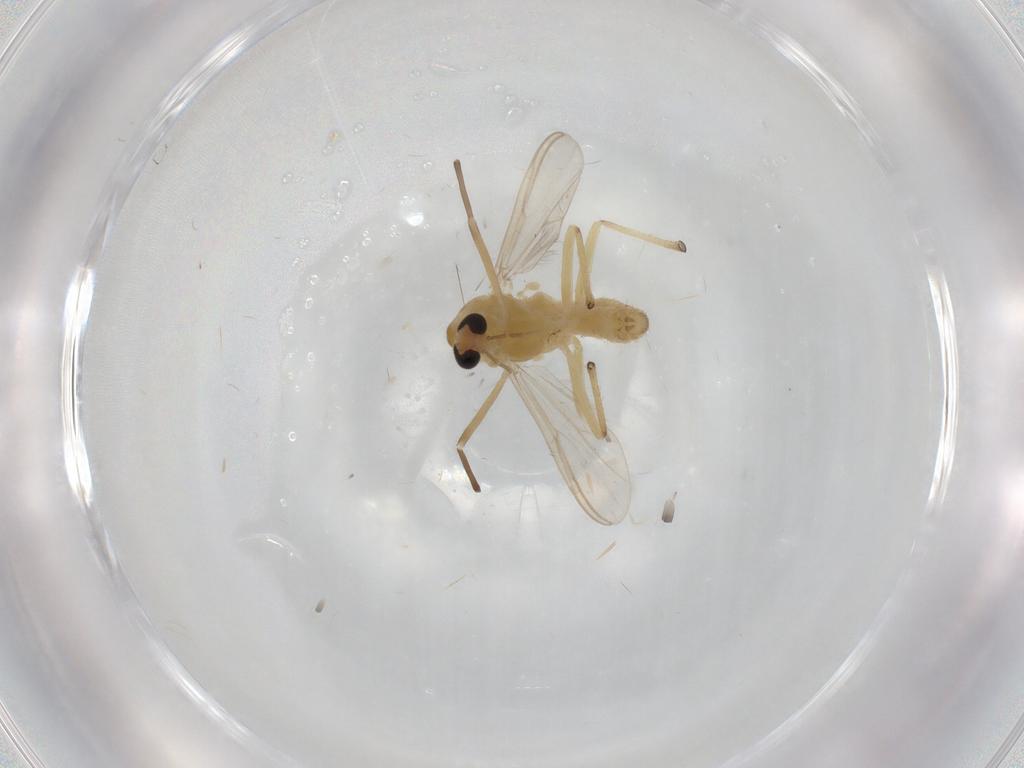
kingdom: Animalia
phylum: Arthropoda
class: Insecta
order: Diptera
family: Chironomidae
